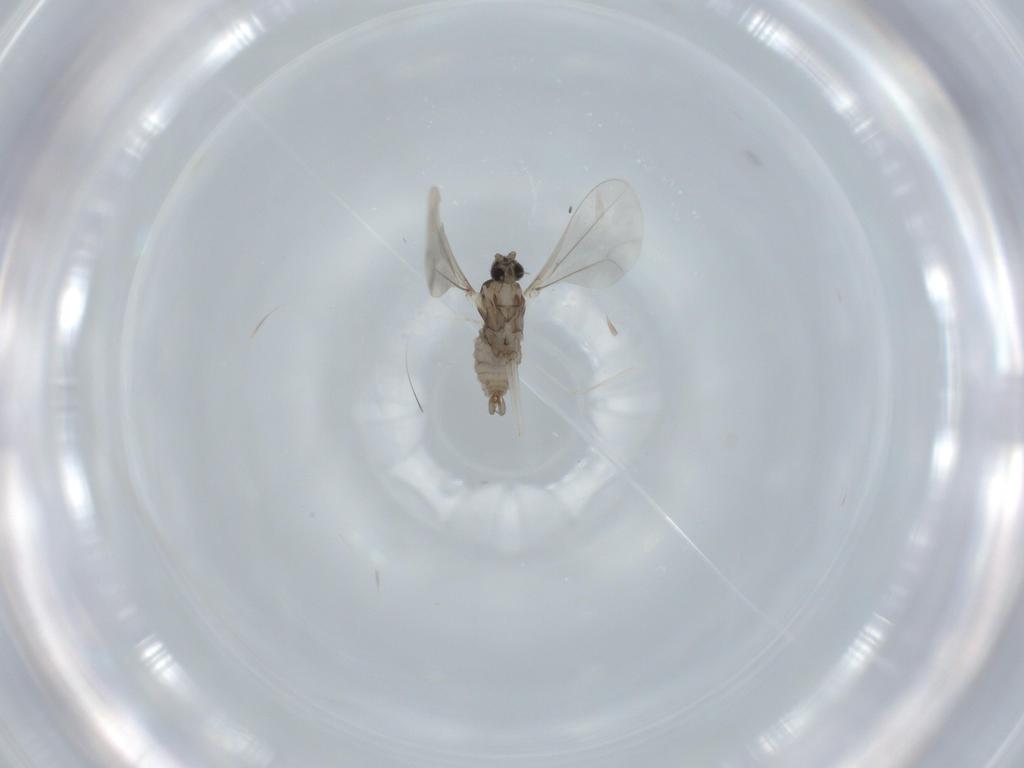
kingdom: Animalia
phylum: Arthropoda
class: Insecta
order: Diptera
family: Cecidomyiidae
